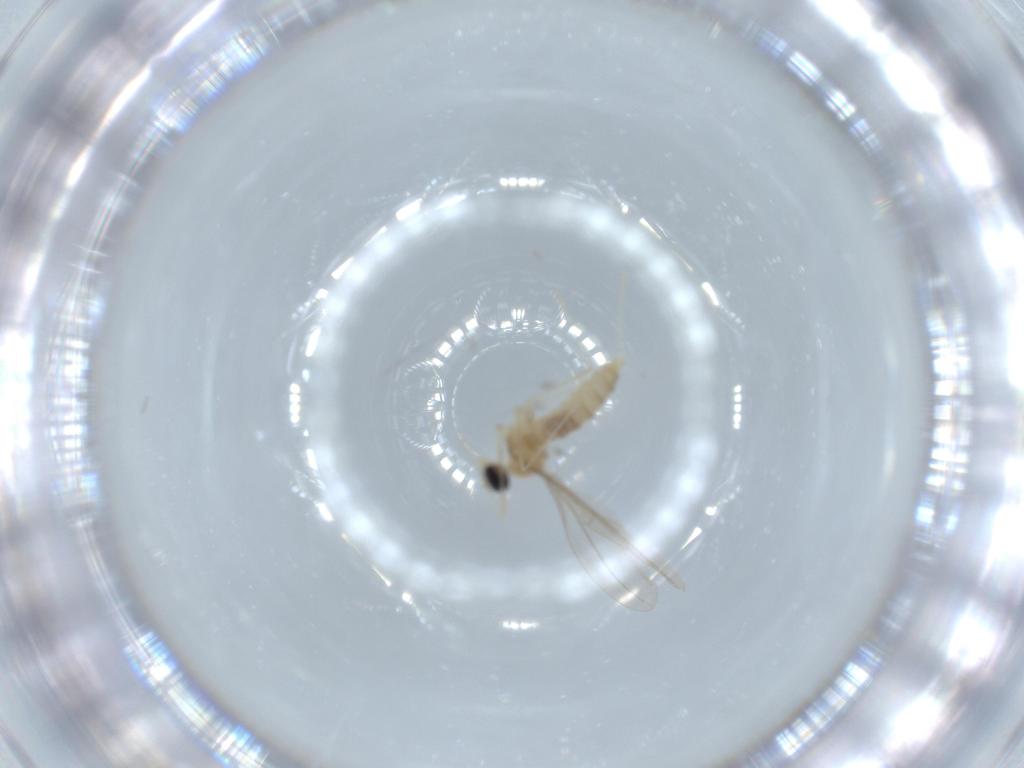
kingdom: Animalia
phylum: Arthropoda
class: Insecta
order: Diptera
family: Cecidomyiidae
